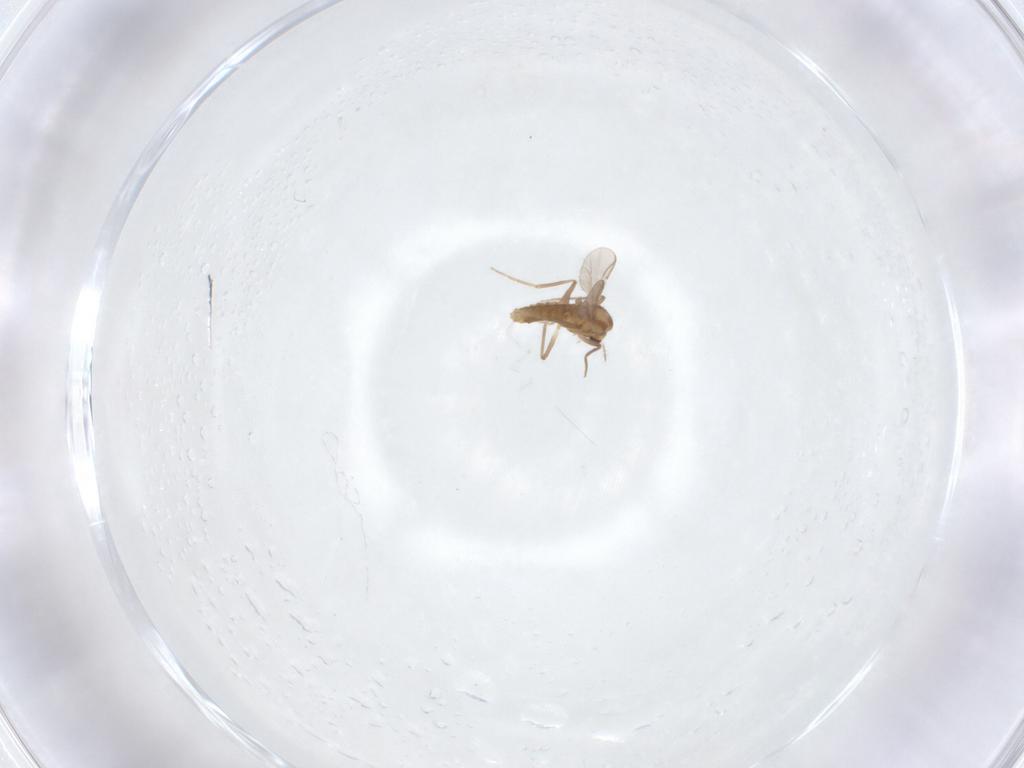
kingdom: Animalia
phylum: Arthropoda
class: Insecta
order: Diptera
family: Chironomidae
